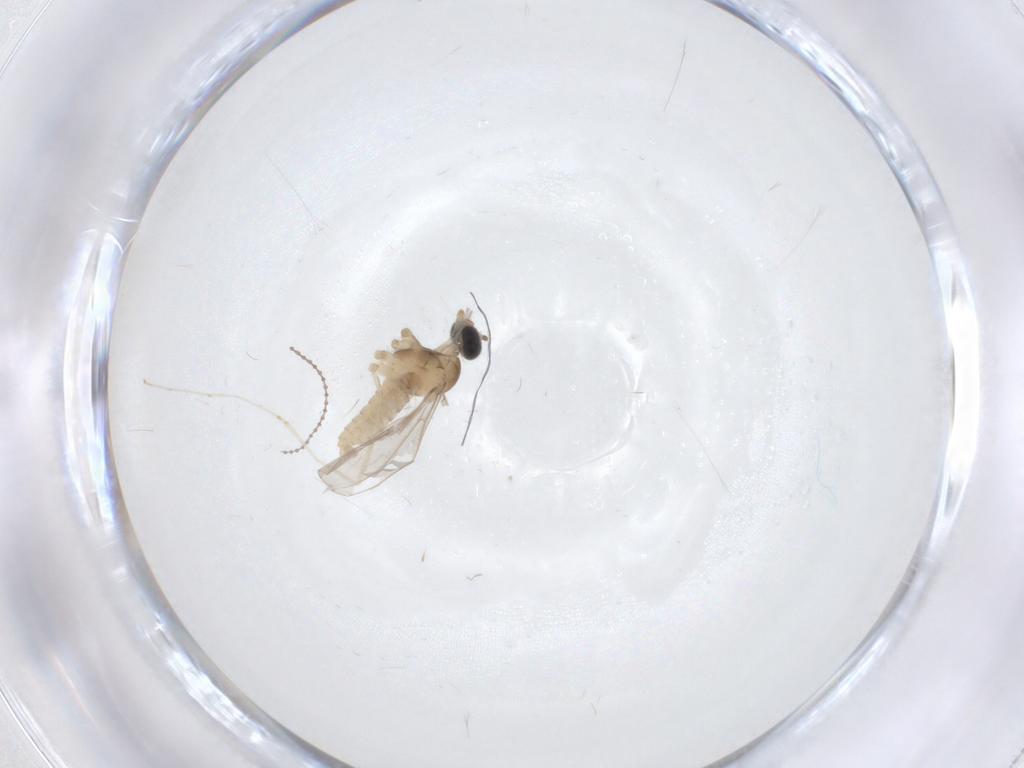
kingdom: Animalia
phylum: Arthropoda
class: Insecta
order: Diptera
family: Cecidomyiidae
